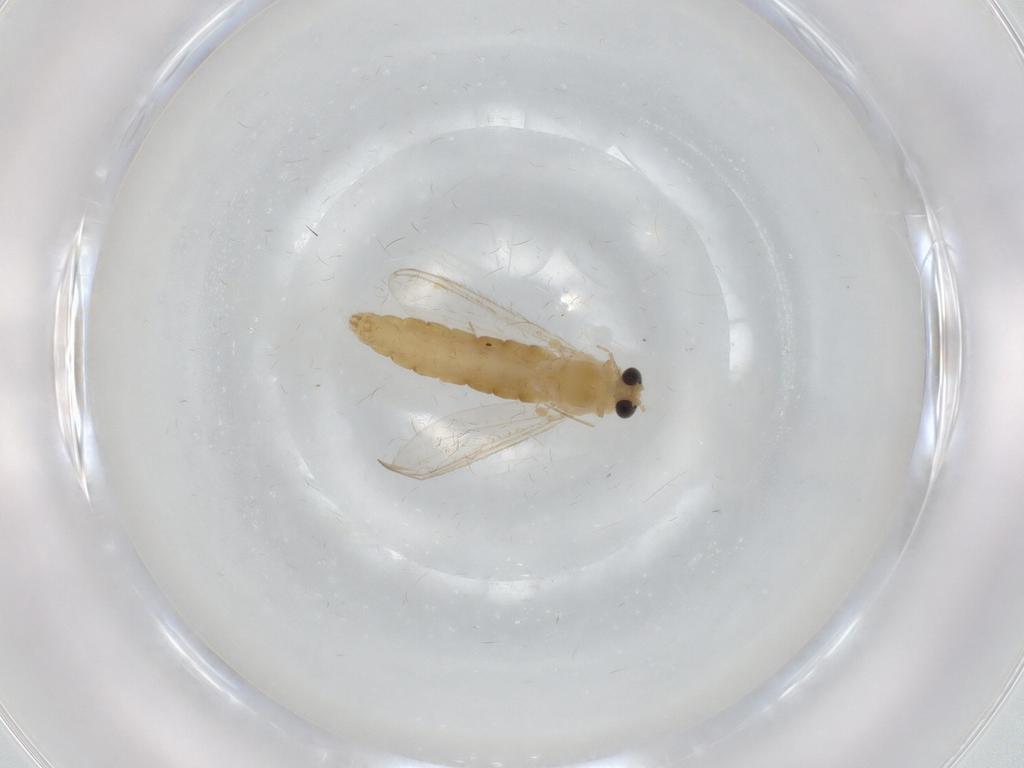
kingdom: Animalia
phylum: Arthropoda
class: Insecta
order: Diptera
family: Chironomidae
